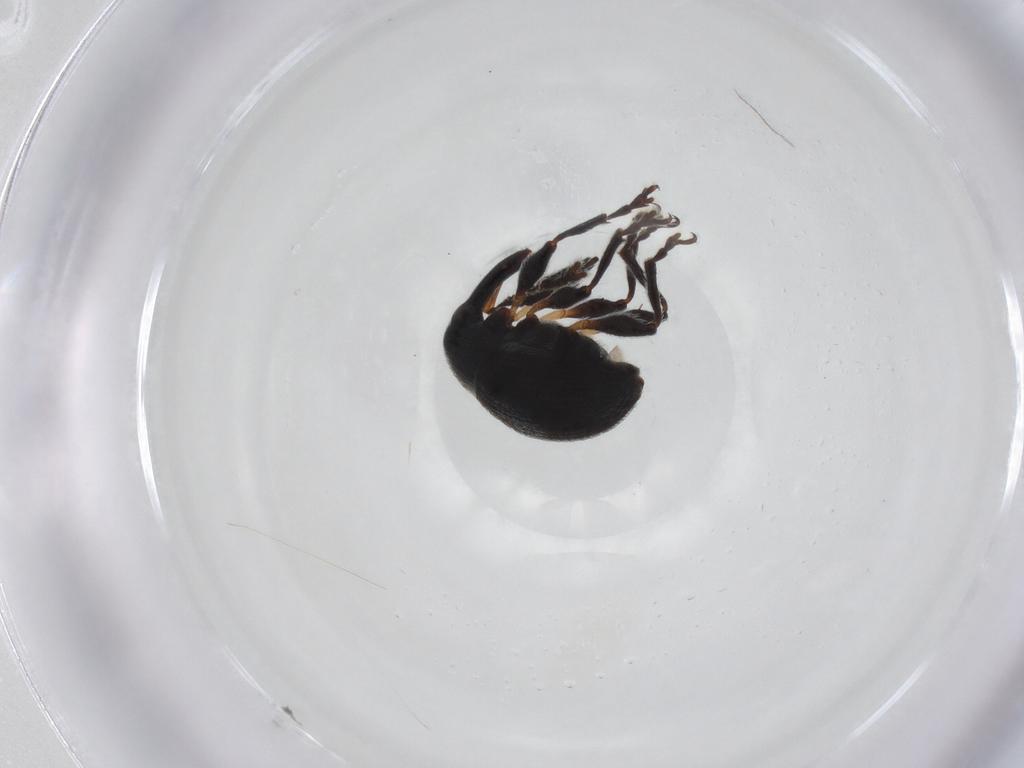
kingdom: Animalia
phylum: Arthropoda
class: Insecta
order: Coleoptera
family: Brentidae
